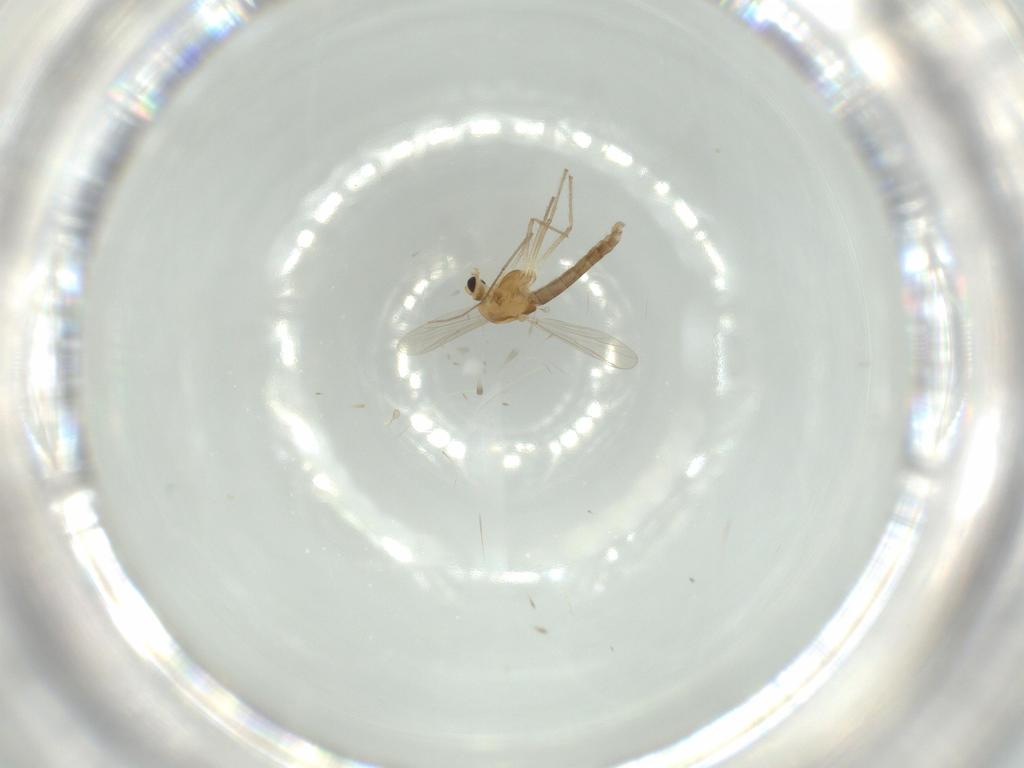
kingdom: Animalia
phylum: Arthropoda
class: Insecta
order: Diptera
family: Chironomidae
